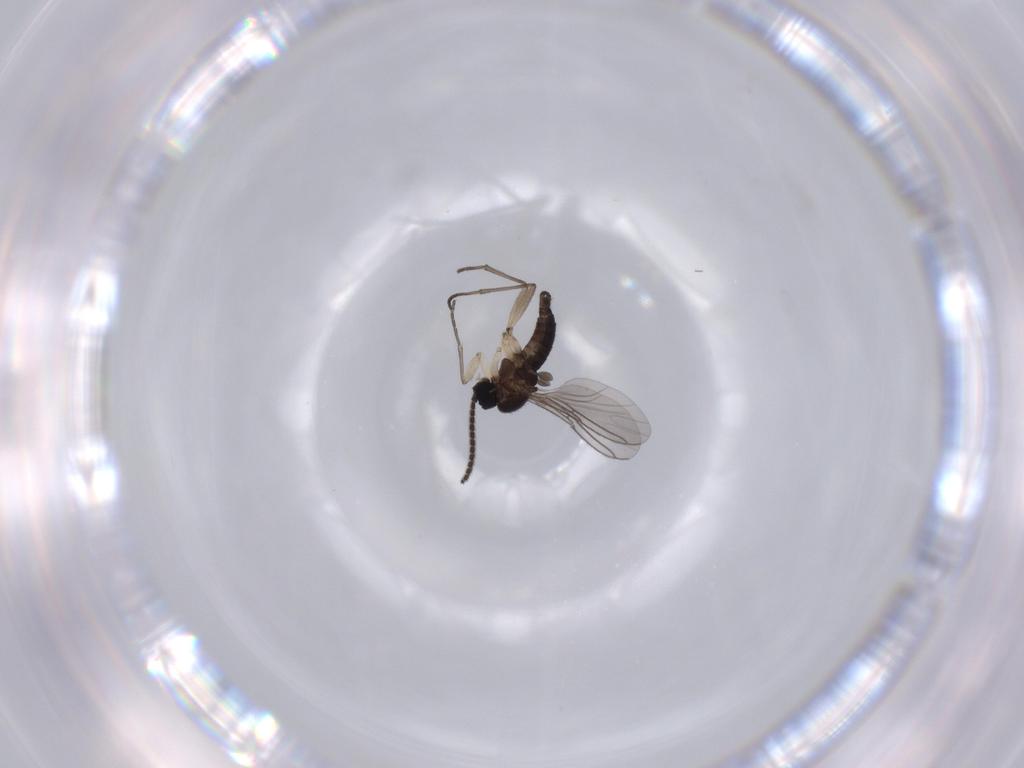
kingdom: Animalia
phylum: Arthropoda
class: Insecta
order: Diptera
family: Sciaridae
